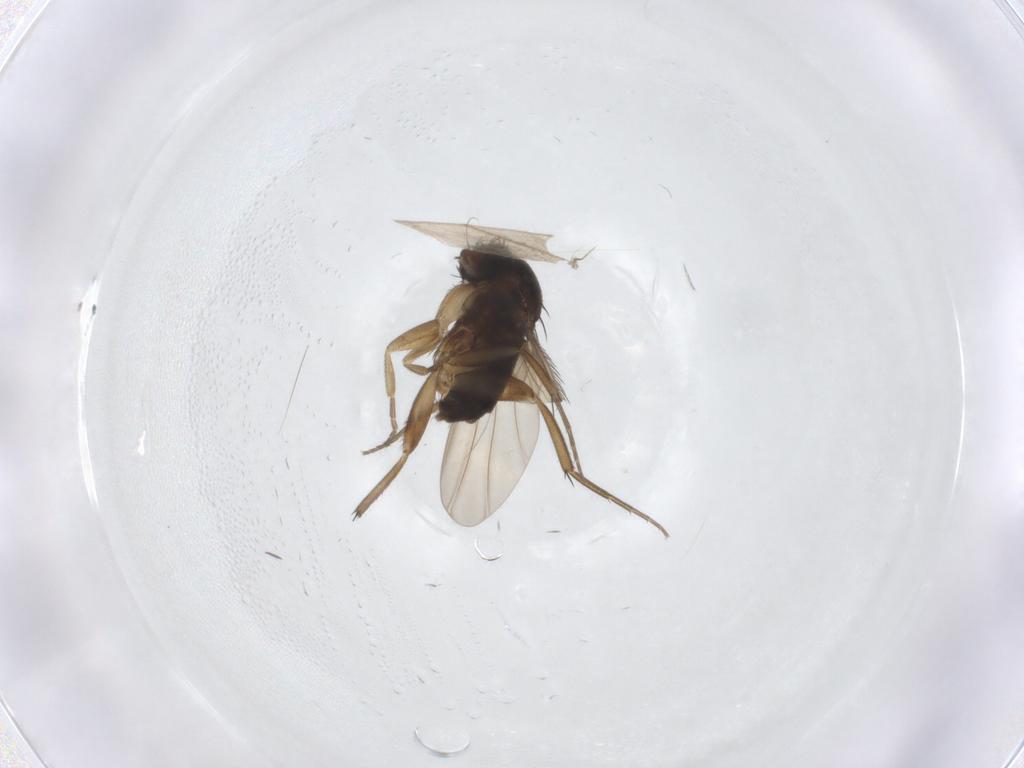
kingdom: Animalia
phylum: Arthropoda
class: Insecta
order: Diptera
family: Phoridae
